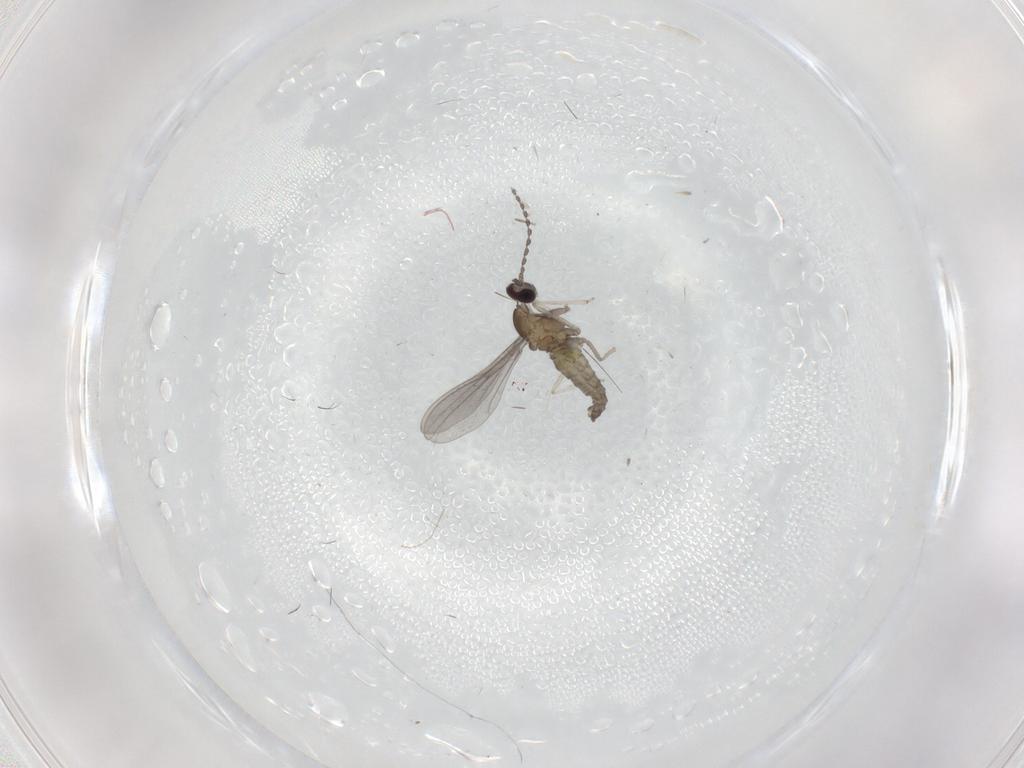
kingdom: Animalia
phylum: Arthropoda
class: Insecta
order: Diptera
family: Cecidomyiidae
